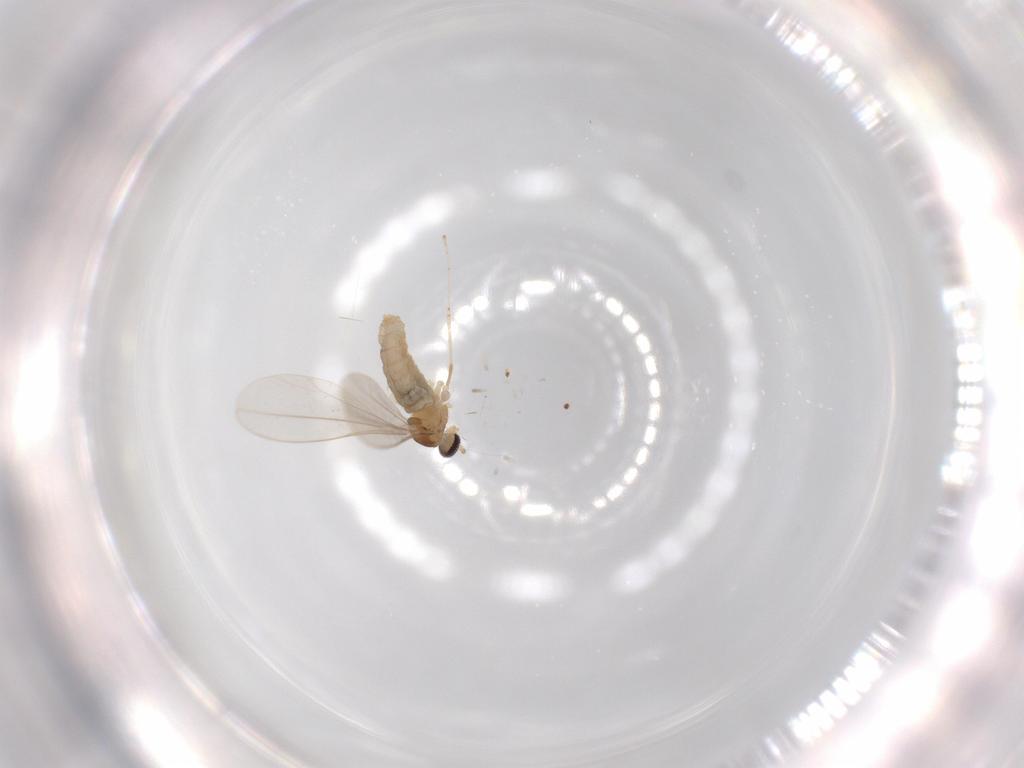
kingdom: Animalia
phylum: Arthropoda
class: Insecta
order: Diptera
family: Cecidomyiidae
